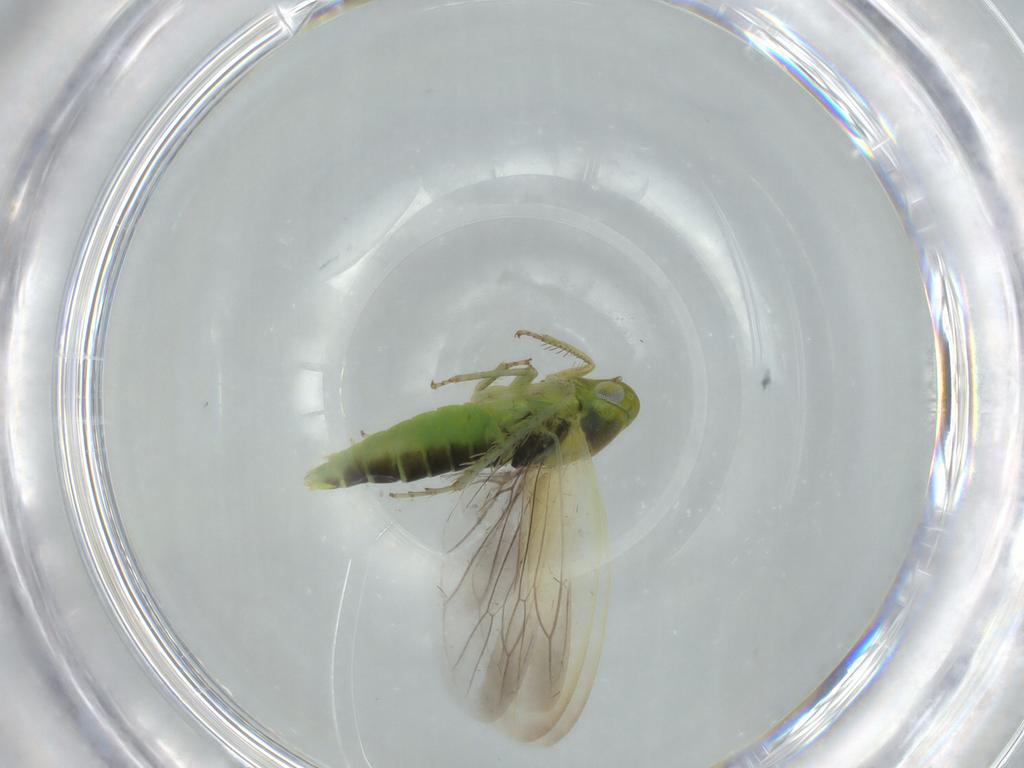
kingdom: Animalia
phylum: Arthropoda
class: Insecta
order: Hemiptera
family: Cicadellidae
